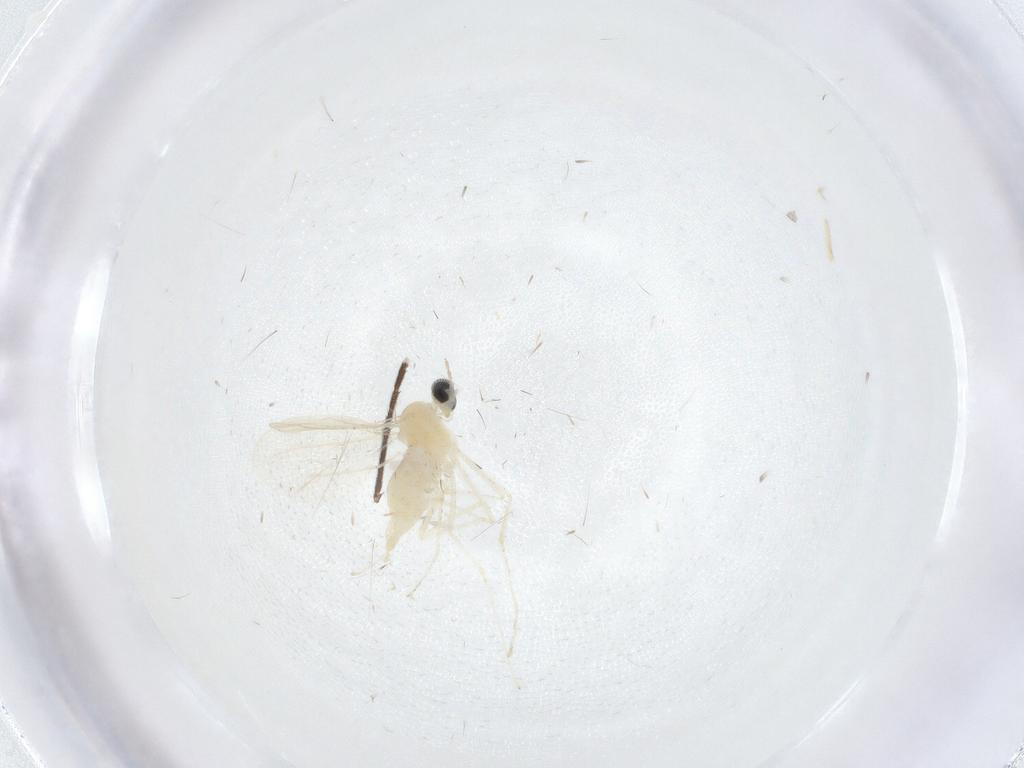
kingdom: Animalia
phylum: Arthropoda
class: Insecta
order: Diptera
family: Cecidomyiidae
